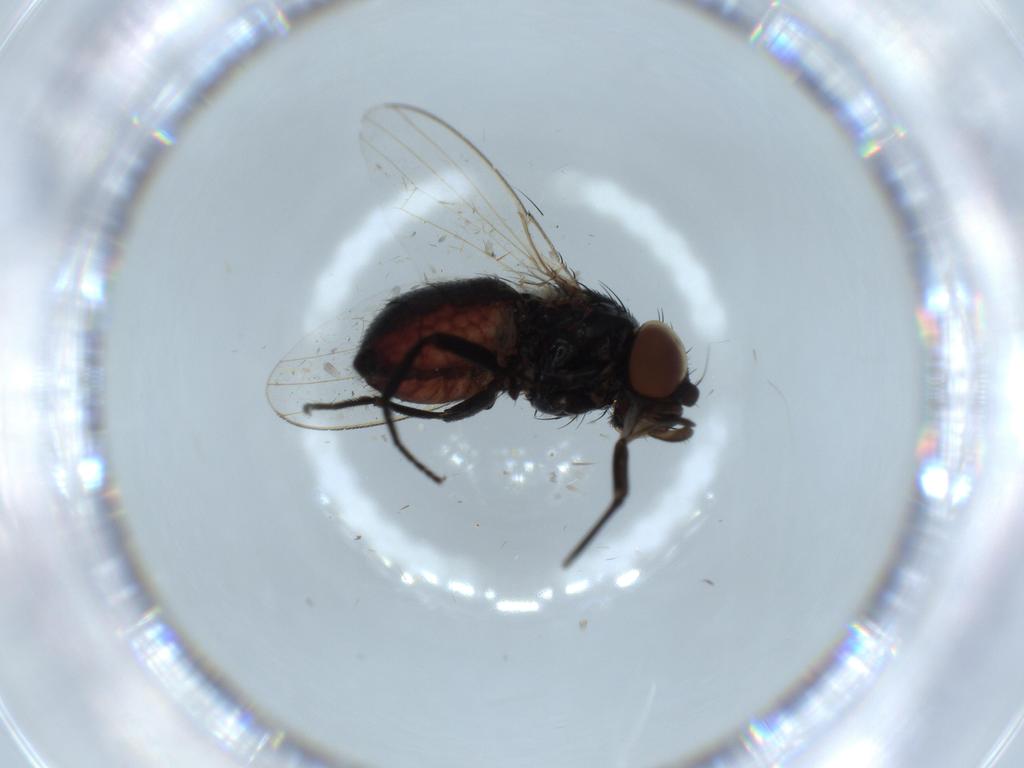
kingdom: Animalia
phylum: Arthropoda
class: Insecta
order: Diptera
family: Milichiidae
